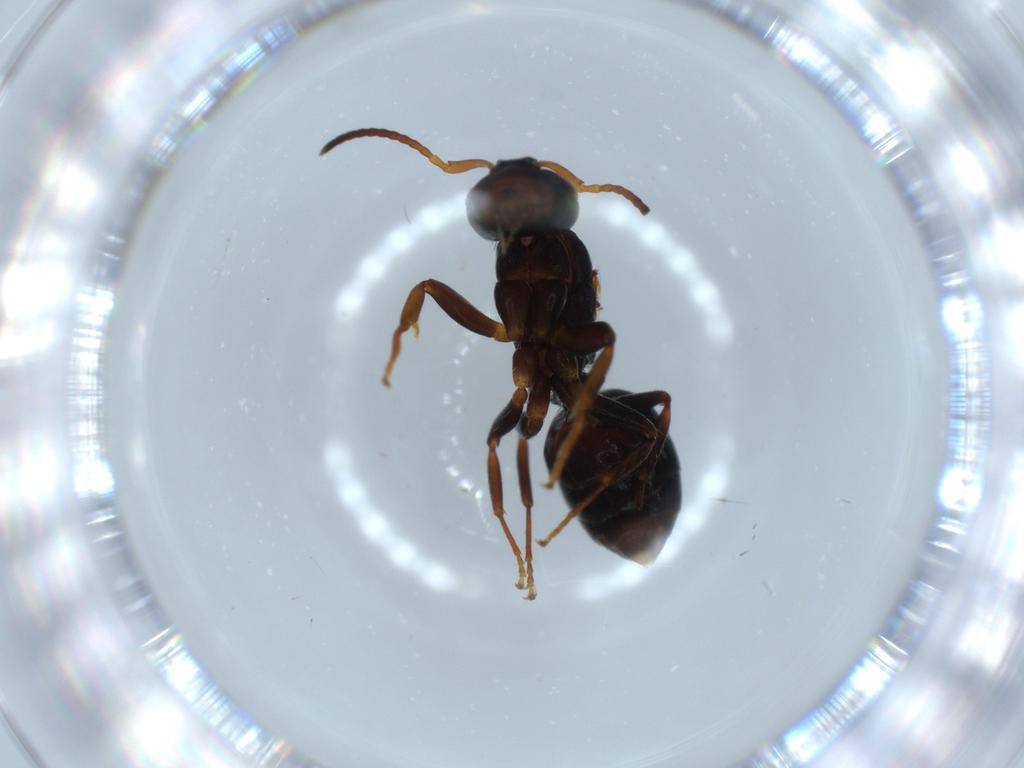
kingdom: Animalia
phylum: Arthropoda
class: Insecta
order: Hymenoptera
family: Formicidae
